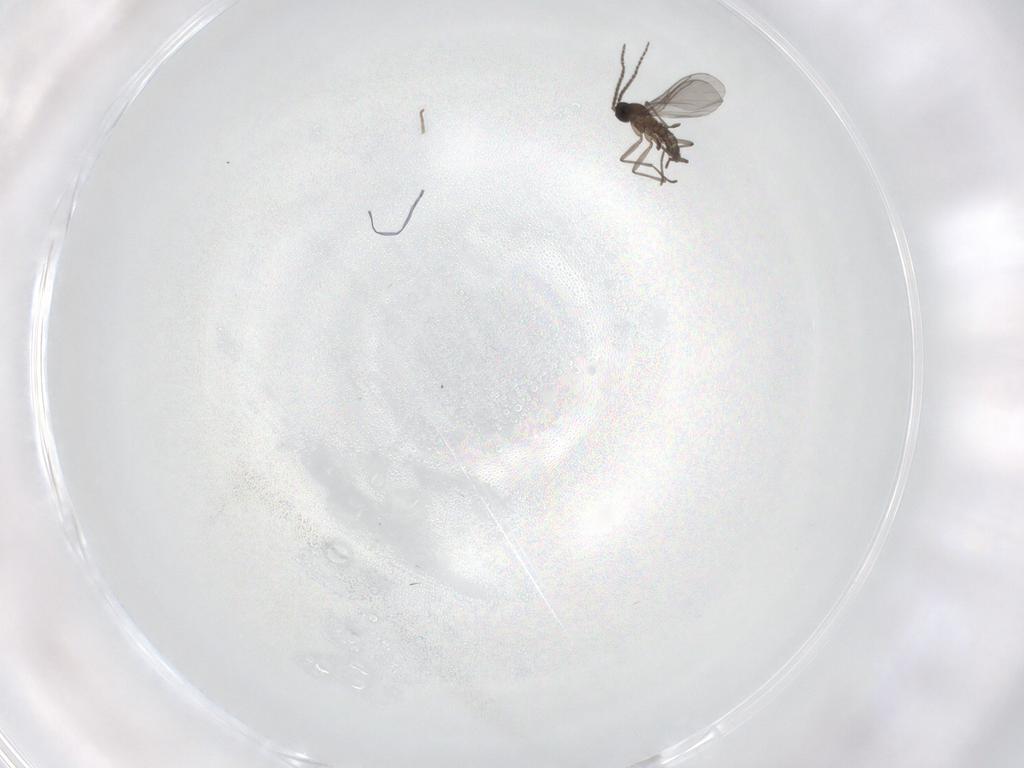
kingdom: Animalia
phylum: Arthropoda
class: Insecta
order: Diptera
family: Sciaridae
